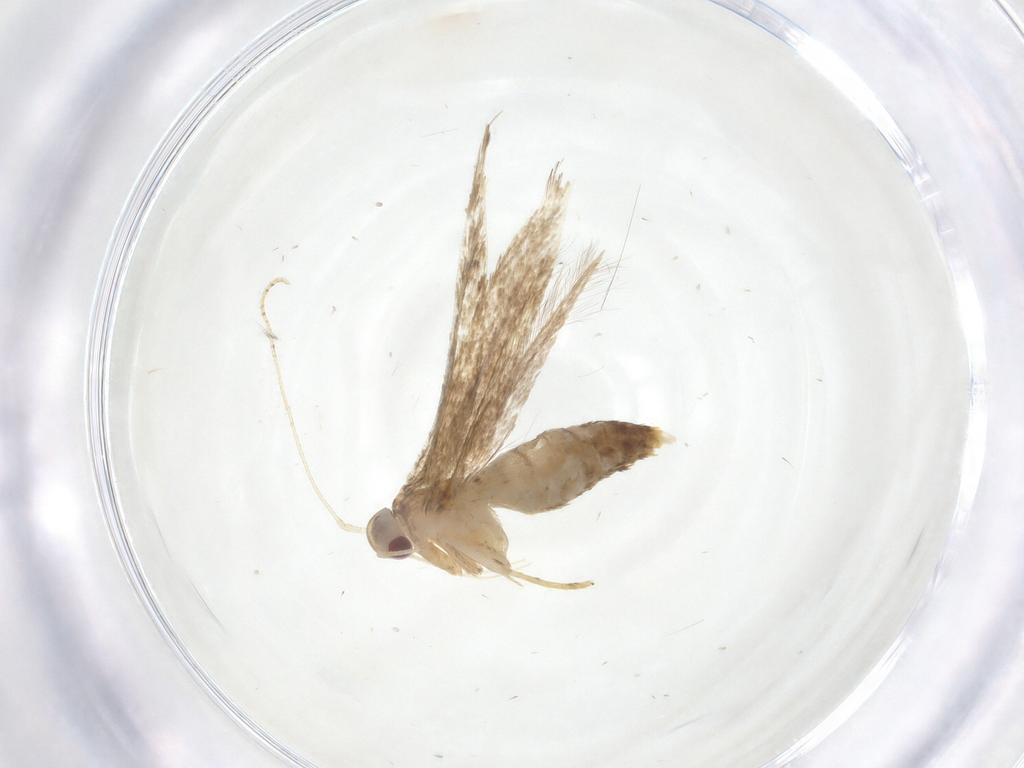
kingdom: Animalia
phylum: Arthropoda
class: Insecta
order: Lepidoptera
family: Cosmopterigidae
